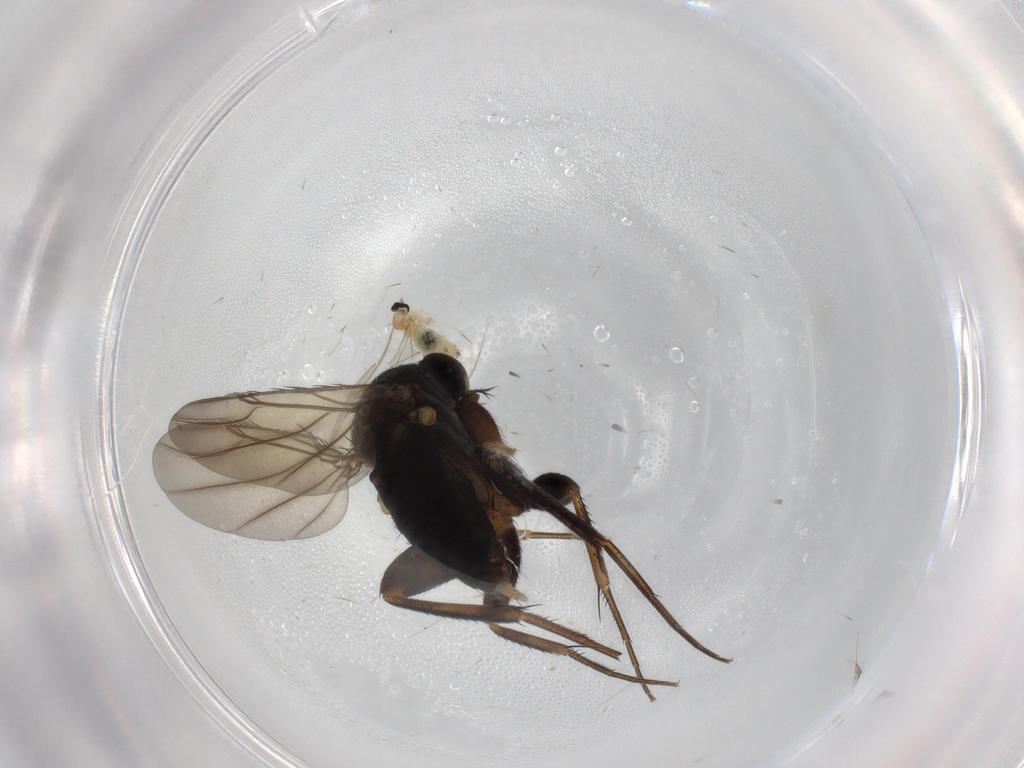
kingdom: Animalia
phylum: Arthropoda
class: Insecta
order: Diptera
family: Phoridae
